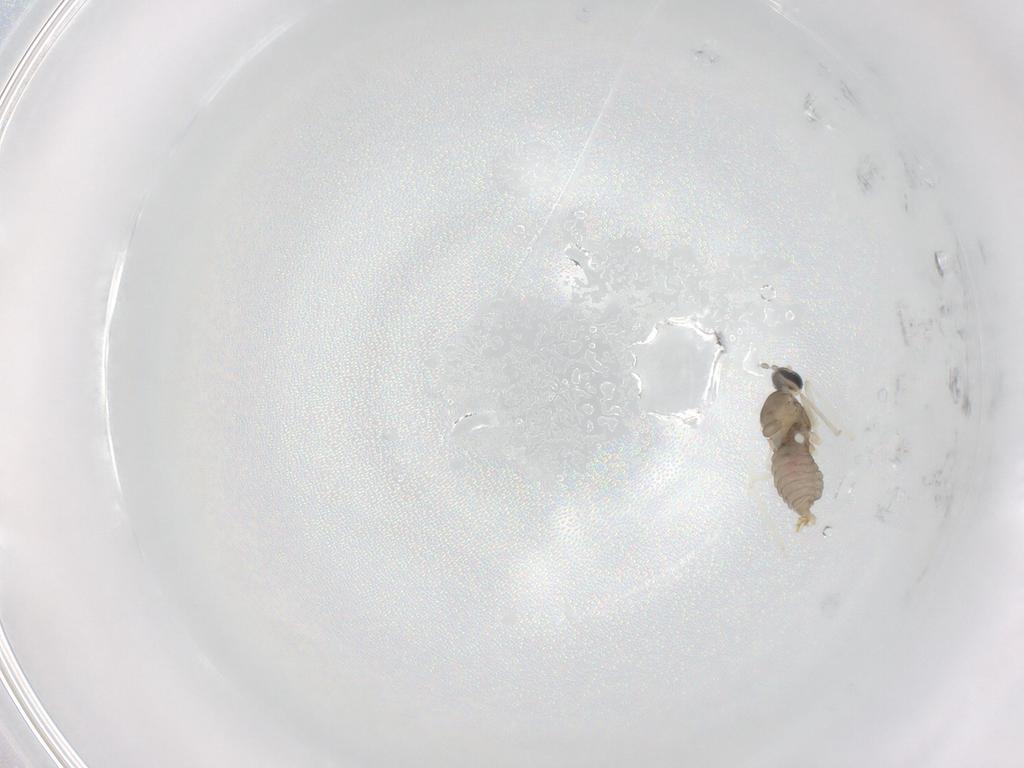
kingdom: Animalia
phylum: Arthropoda
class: Insecta
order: Diptera
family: Cecidomyiidae
